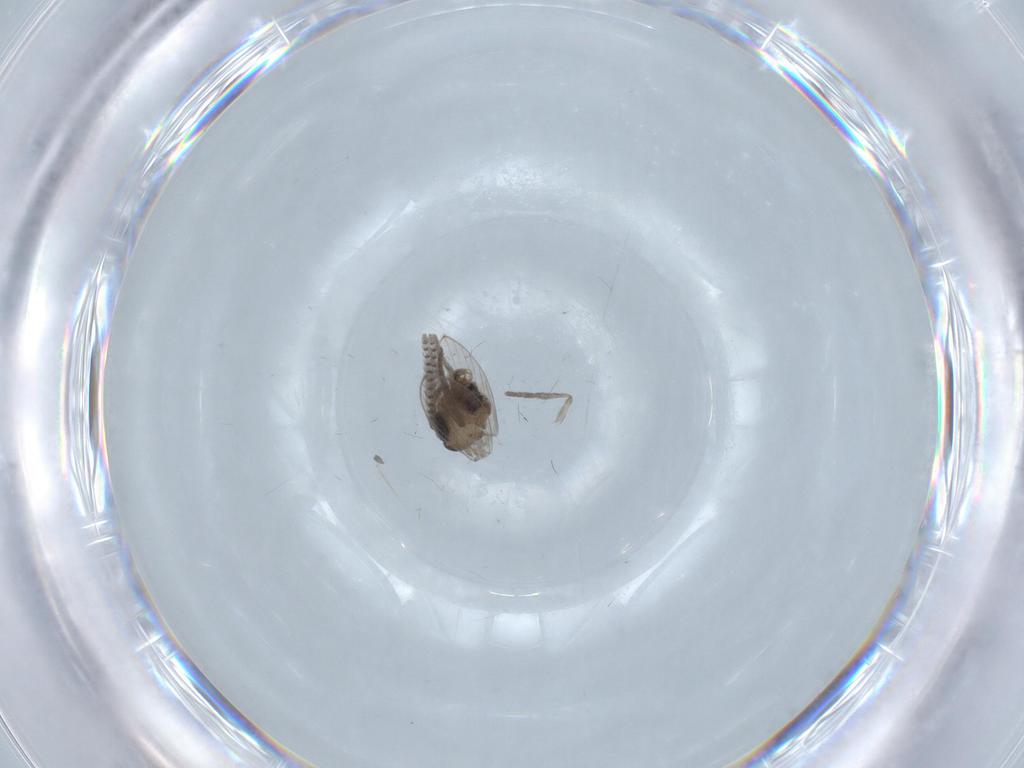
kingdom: Animalia
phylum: Arthropoda
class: Insecta
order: Diptera
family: Psychodidae
